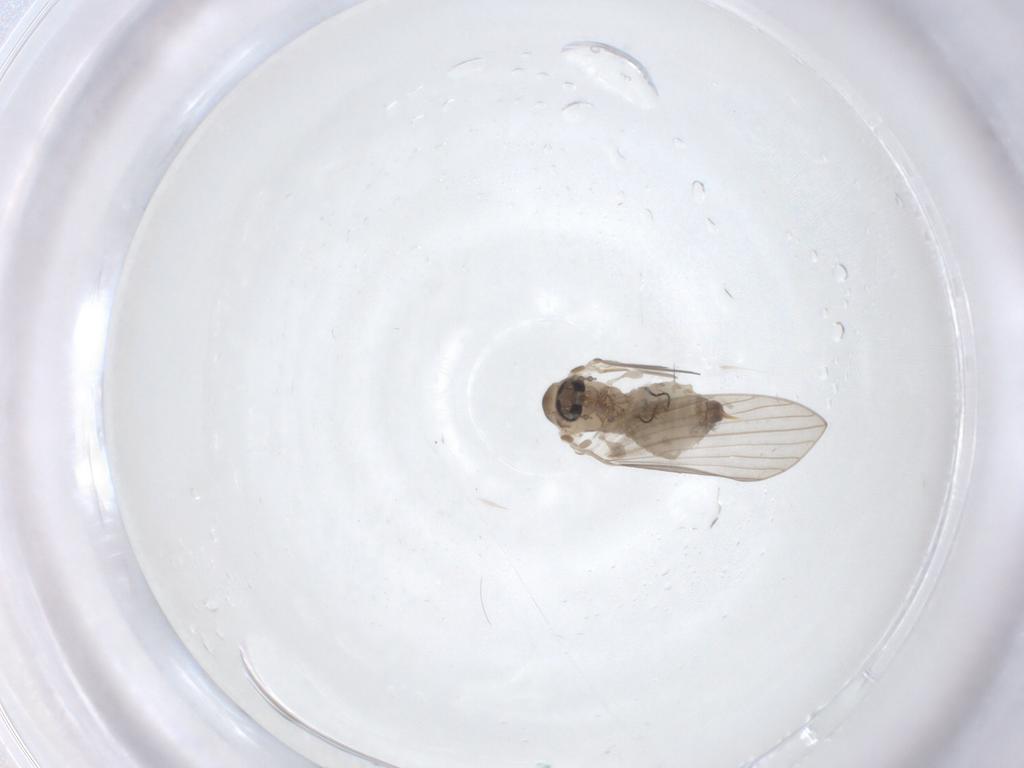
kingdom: Animalia
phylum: Arthropoda
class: Insecta
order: Diptera
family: Psychodidae
